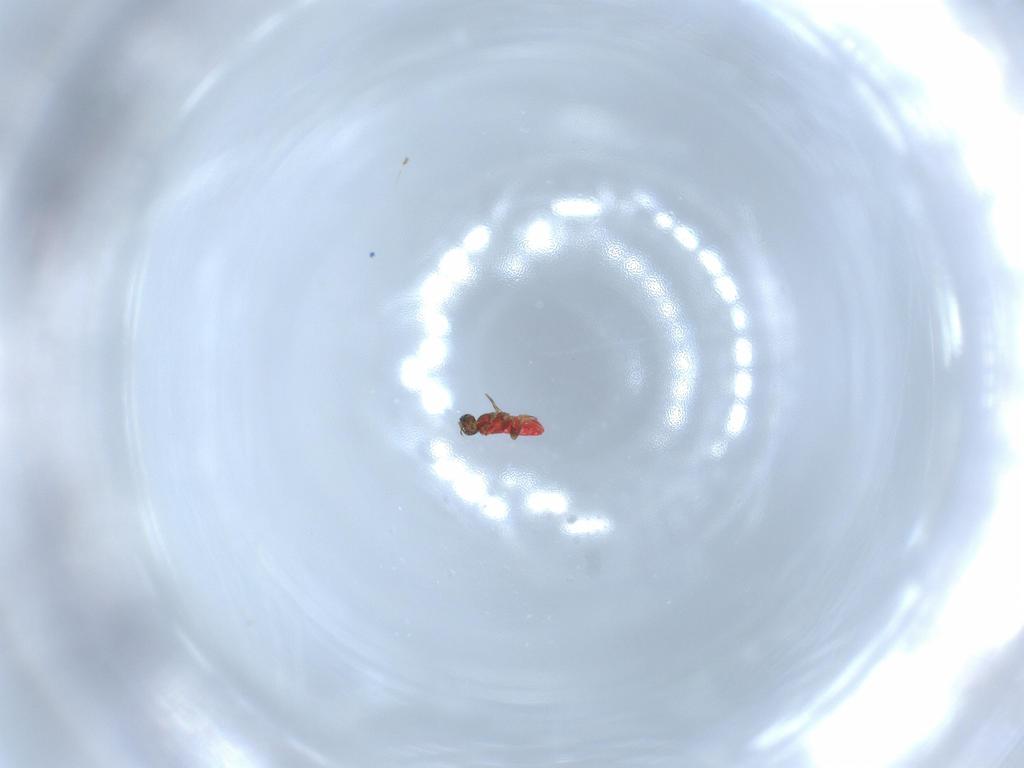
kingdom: Animalia
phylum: Arthropoda
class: Insecta
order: Hymenoptera
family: Trichogrammatidae
